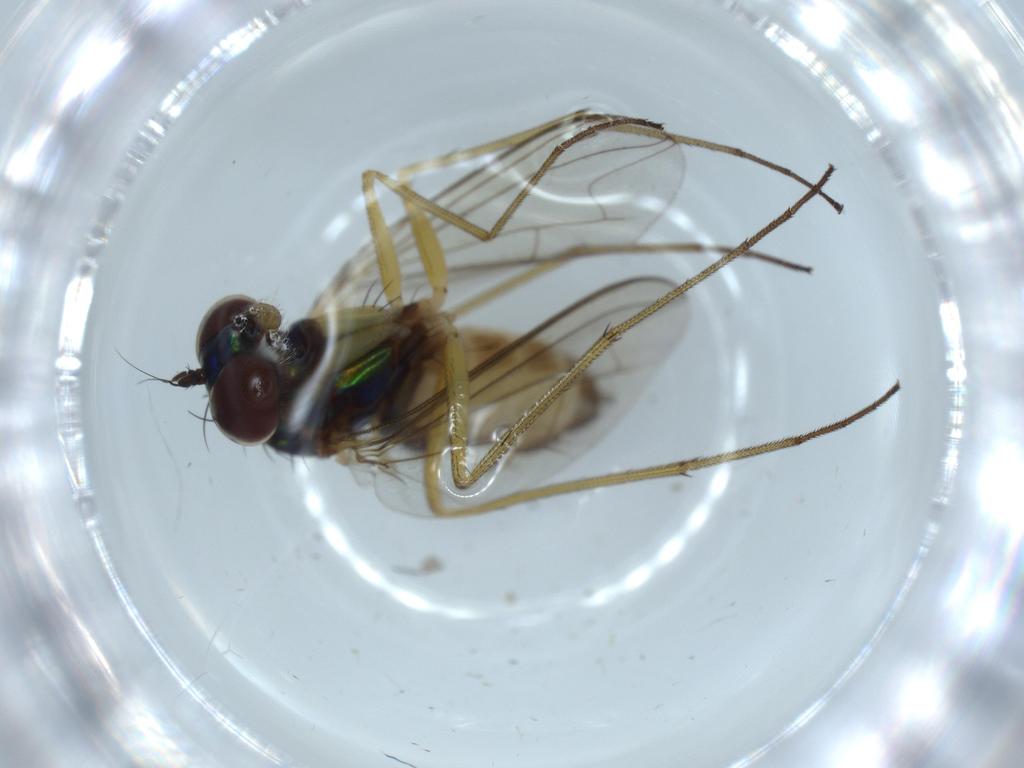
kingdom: Animalia
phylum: Arthropoda
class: Insecta
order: Diptera
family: Dolichopodidae
